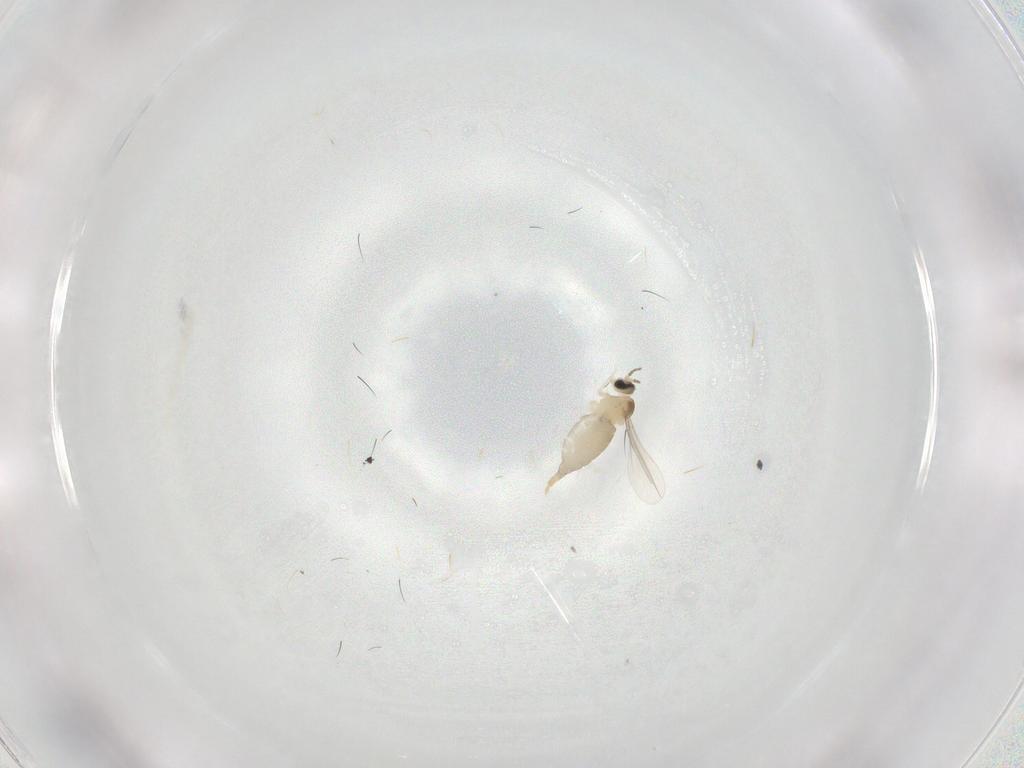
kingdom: Animalia
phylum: Arthropoda
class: Insecta
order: Diptera
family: Cecidomyiidae
